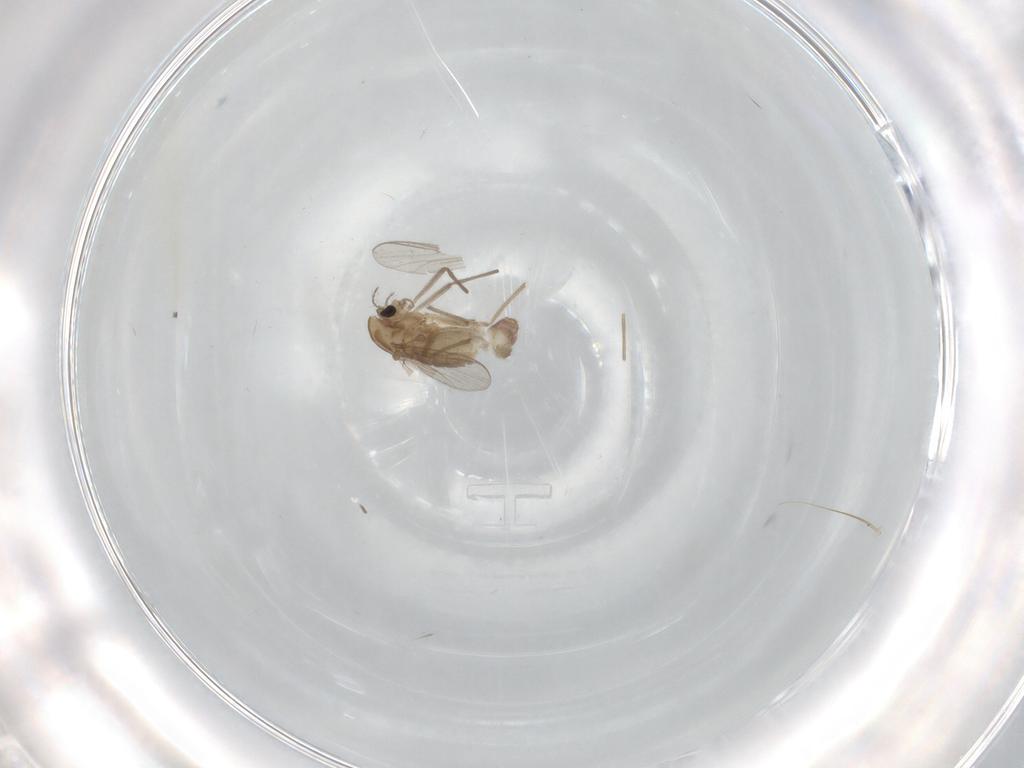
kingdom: Animalia
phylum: Arthropoda
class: Insecta
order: Diptera
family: Chironomidae
